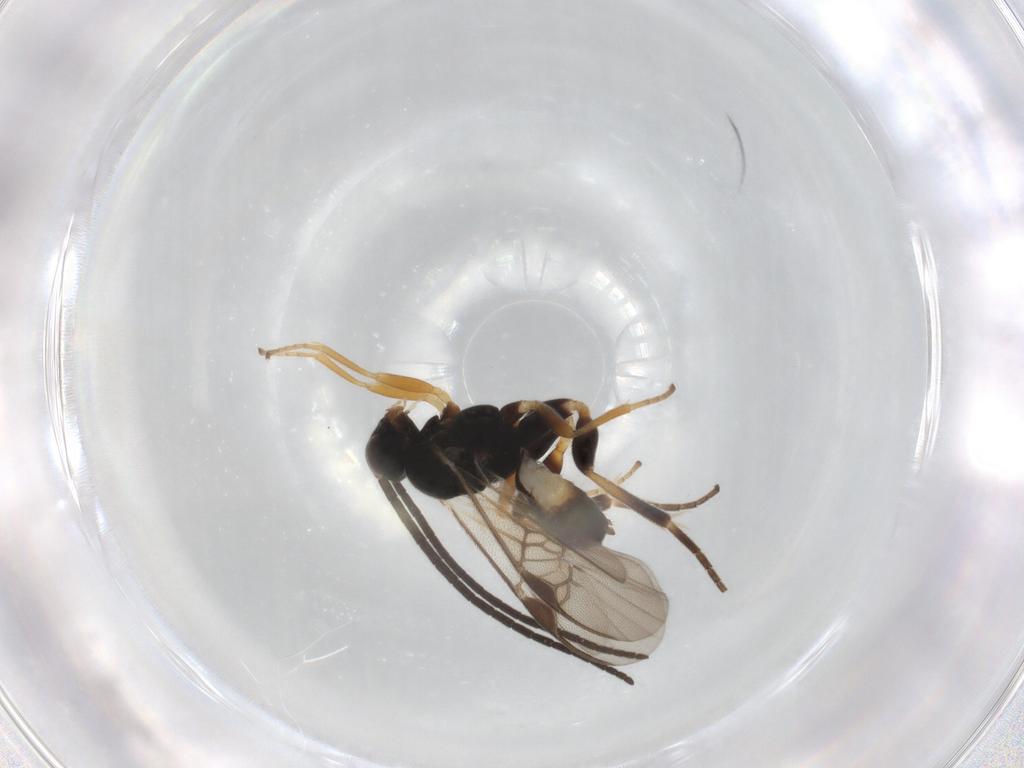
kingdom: Animalia
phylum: Arthropoda
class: Insecta
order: Hymenoptera
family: Braconidae
